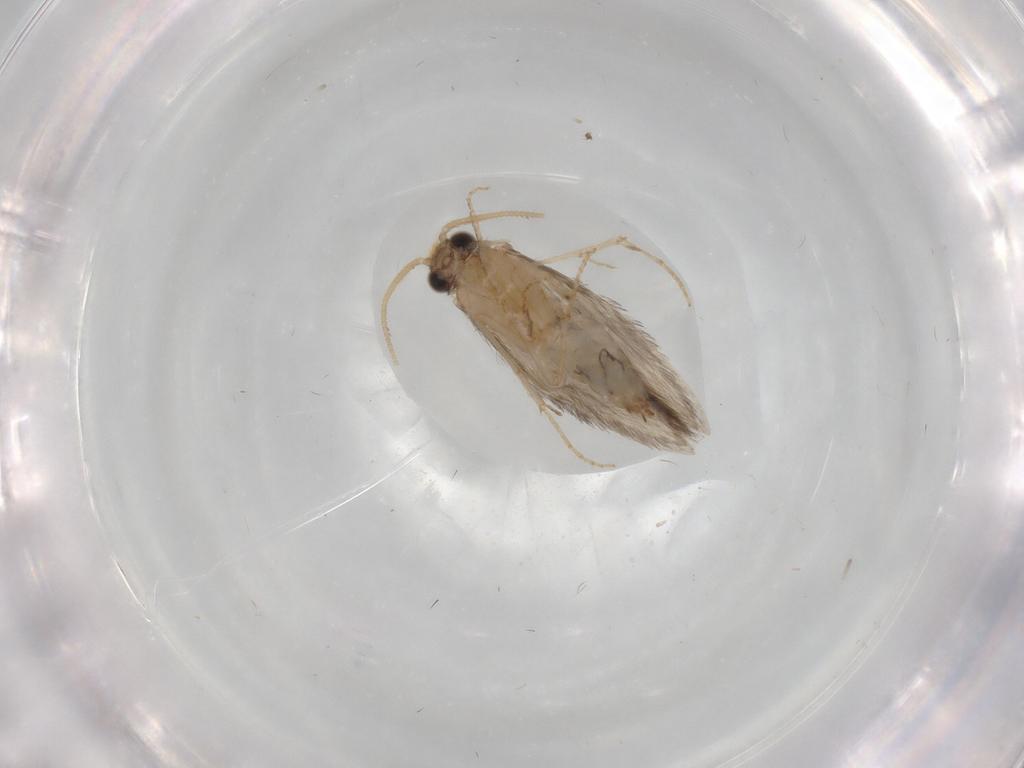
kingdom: Animalia
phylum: Arthropoda
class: Insecta
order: Trichoptera
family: Hydroptilidae
